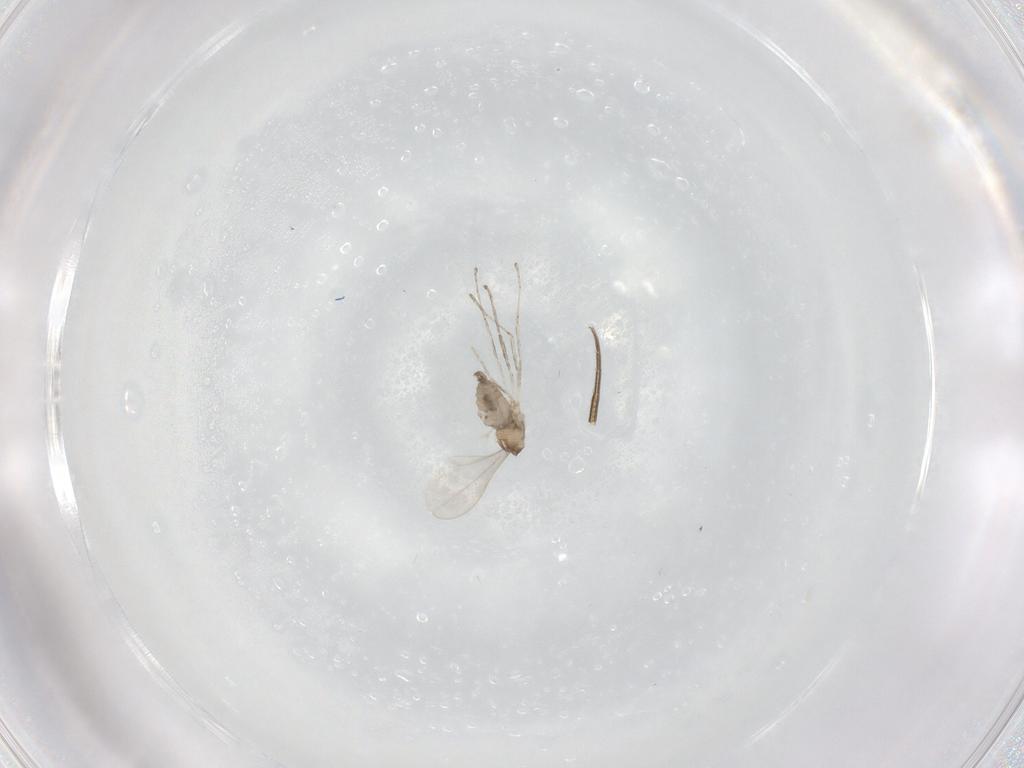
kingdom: Animalia
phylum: Arthropoda
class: Insecta
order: Diptera
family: Cecidomyiidae
